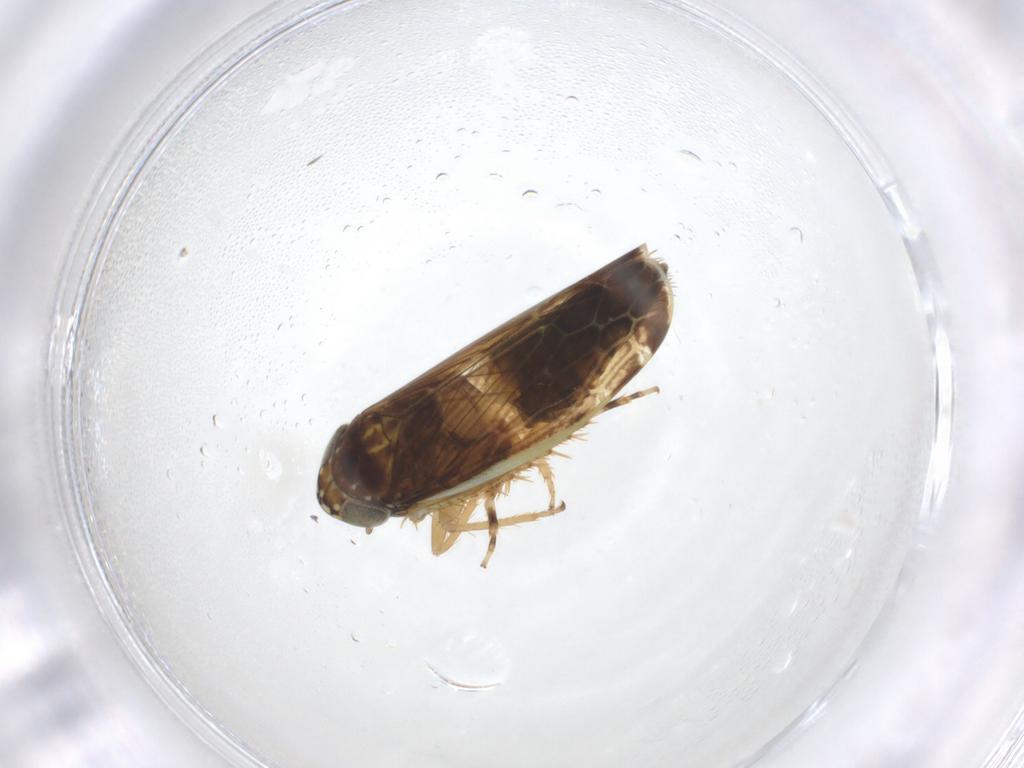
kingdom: Animalia
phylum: Arthropoda
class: Insecta
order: Hemiptera
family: Cicadellidae
